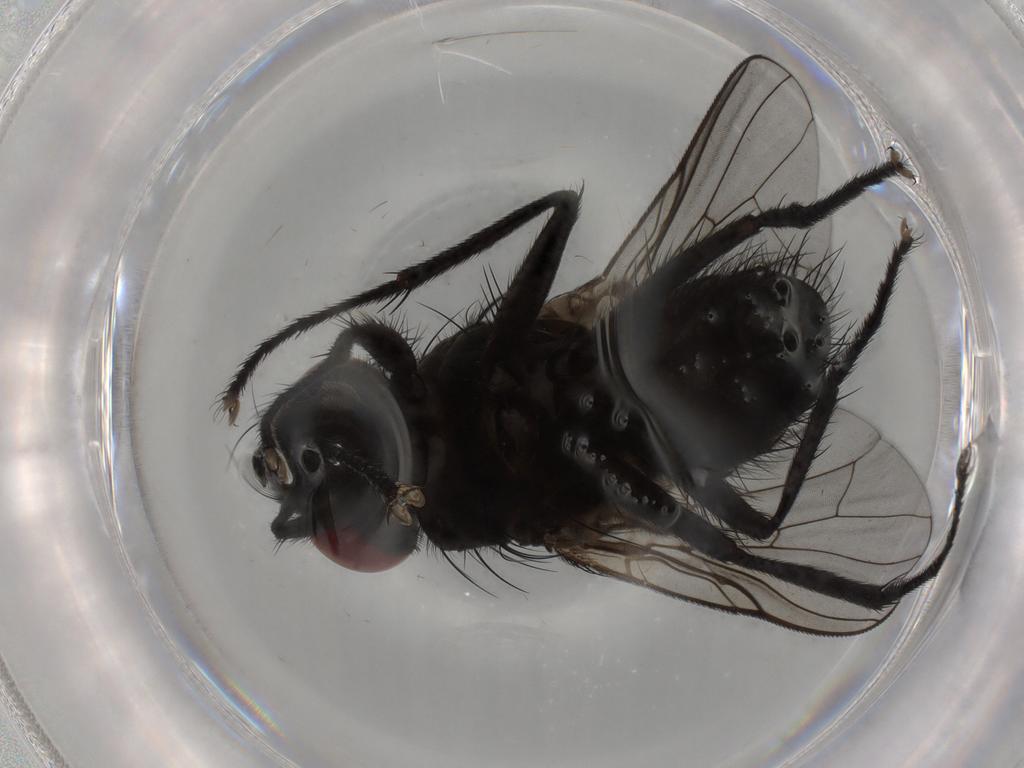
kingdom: Animalia
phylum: Arthropoda
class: Insecta
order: Diptera
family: Muscidae
